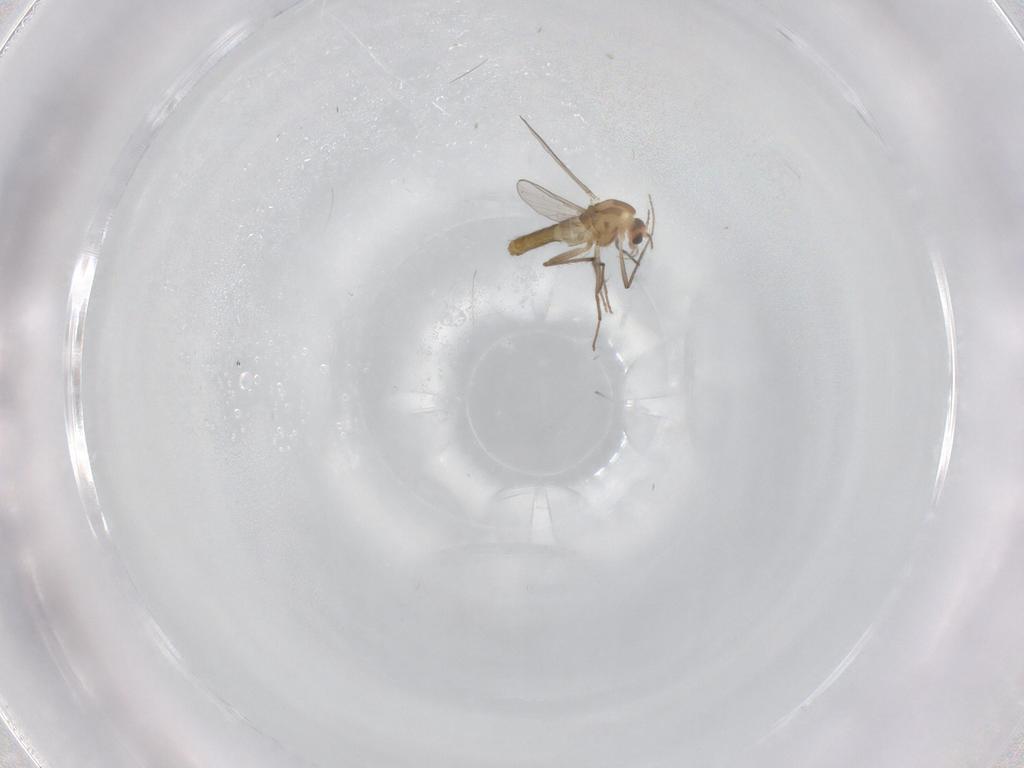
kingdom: Animalia
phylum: Arthropoda
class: Insecta
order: Diptera
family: Chironomidae
